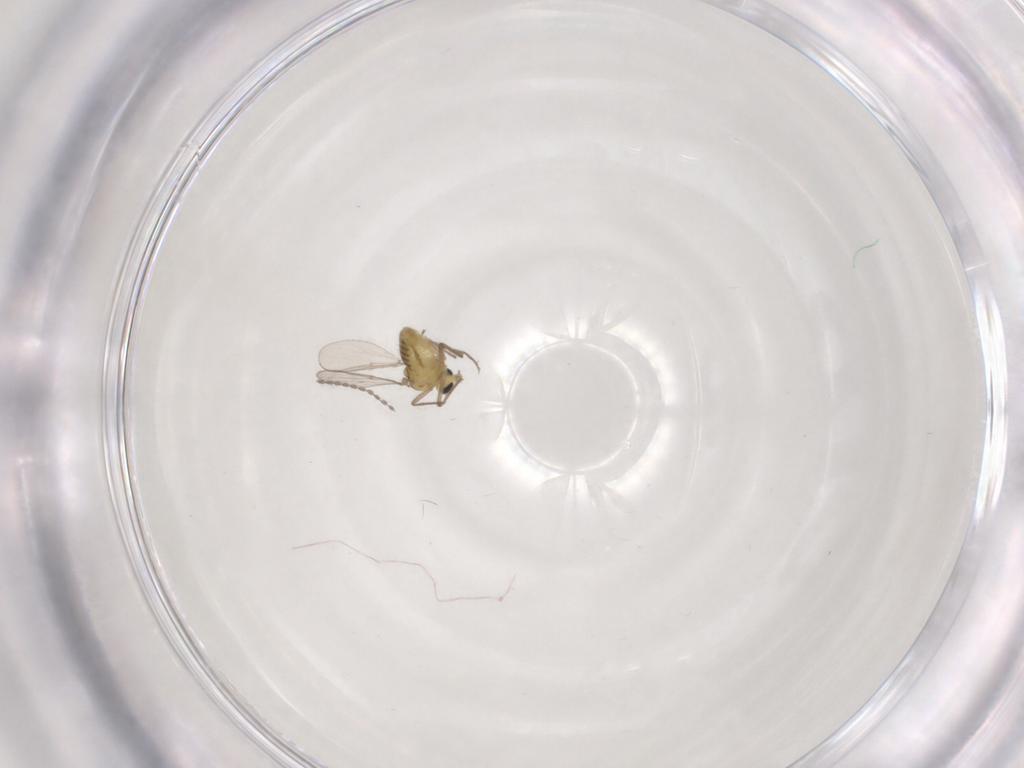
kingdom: Animalia
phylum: Arthropoda
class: Insecta
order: Diptera
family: Chironomidae
